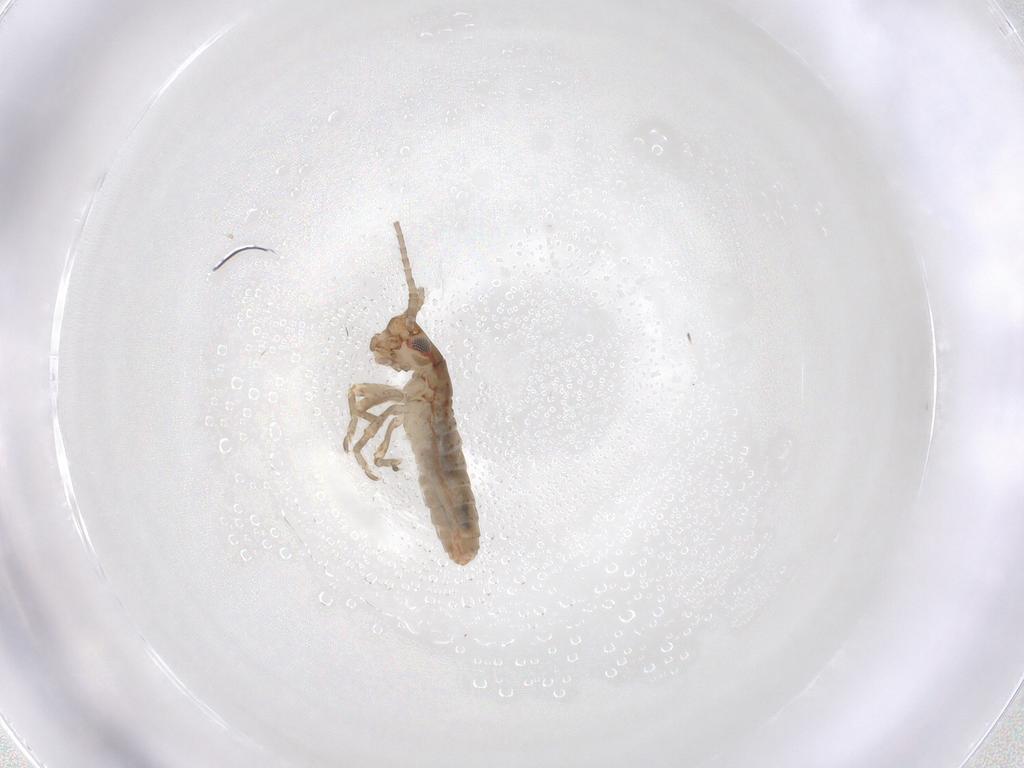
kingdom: Animalia
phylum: Arthropoda
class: Insecta
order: Orthoptera
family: Mogoplistidae
